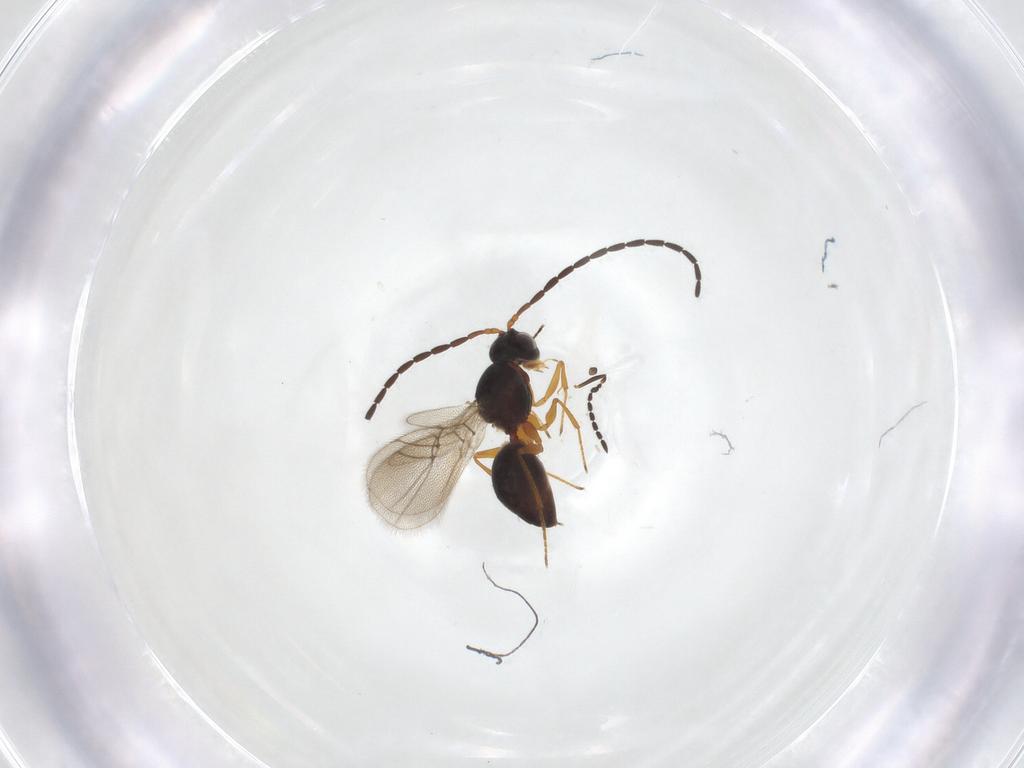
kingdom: Animalia
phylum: Arthropoda
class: Insecta
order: Hymenoptera
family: Figitidae
